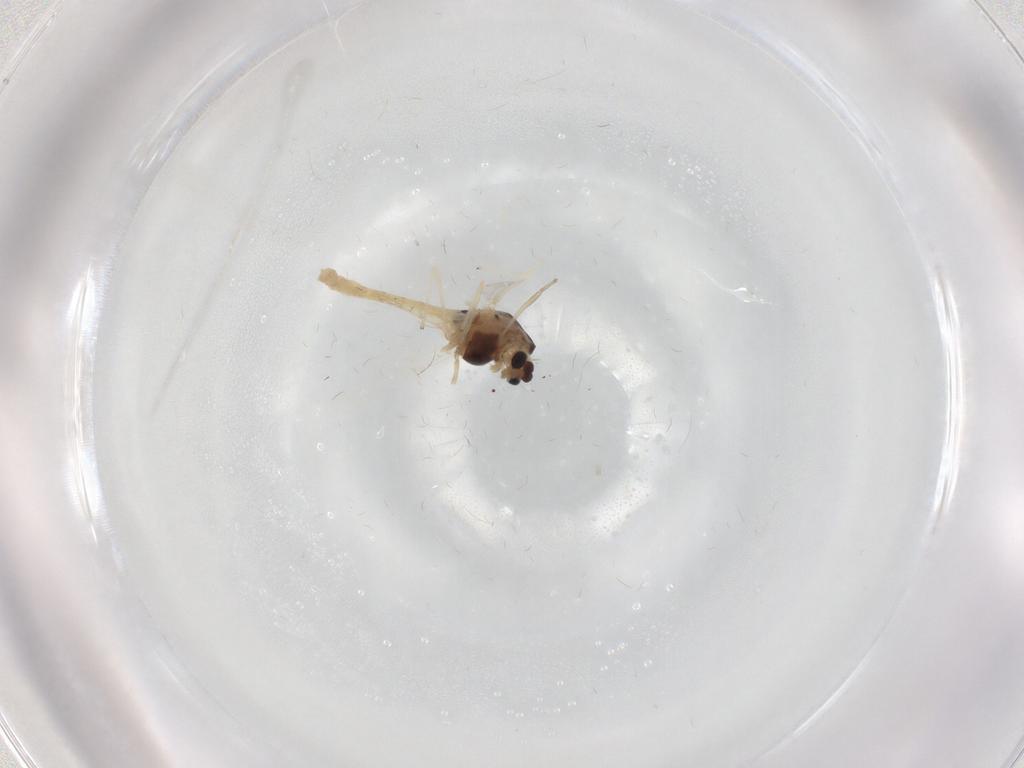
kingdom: Animalia
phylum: Arthropoda
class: Insecta
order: Diptera
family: Chironomidae
